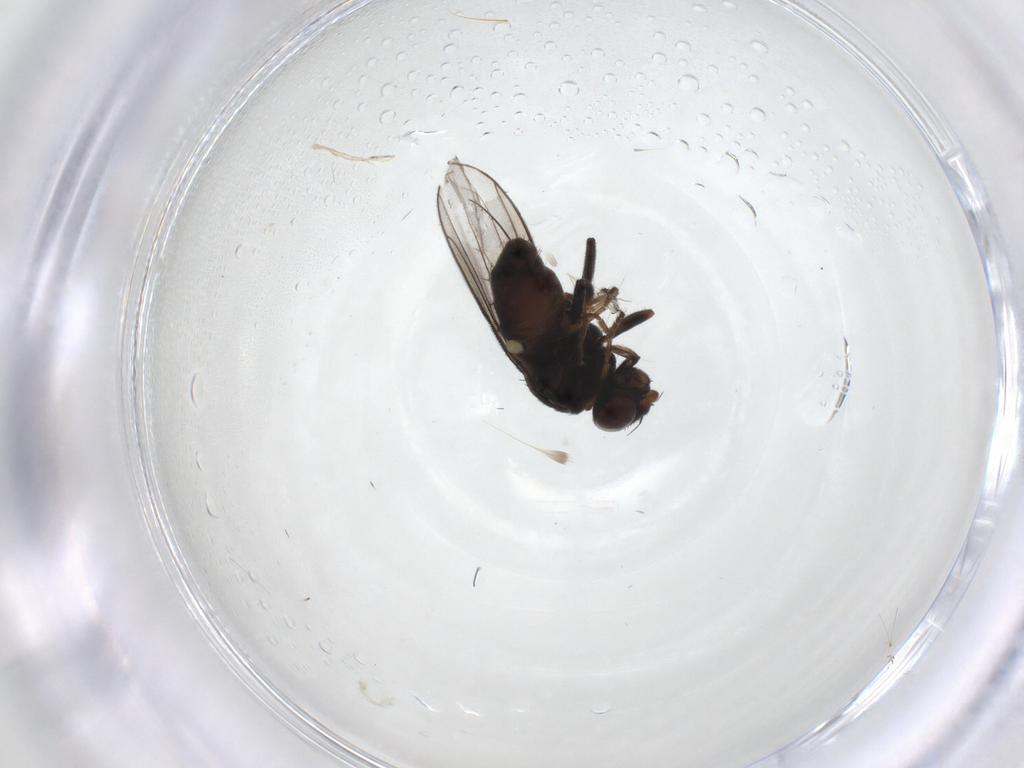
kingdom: Animalia
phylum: Arthropoda
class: Insecta
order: Diptera
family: Chloropidae
